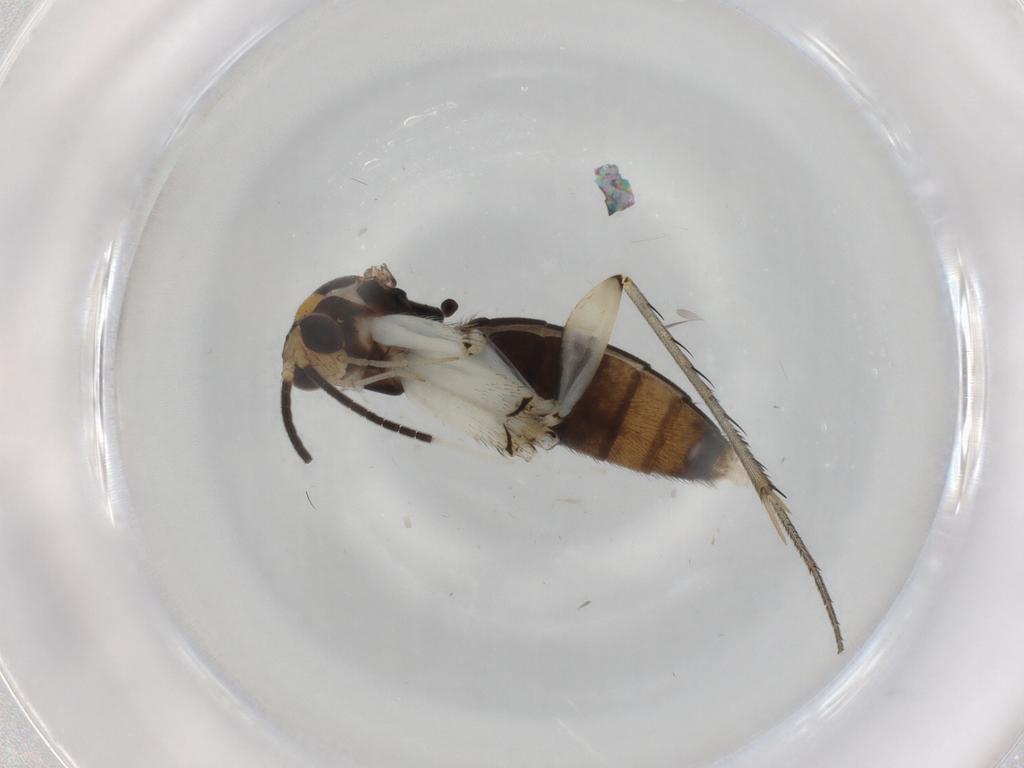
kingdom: Animalia
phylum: Arthropoda
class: Insecta
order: Diptera
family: Mycetophilidae
